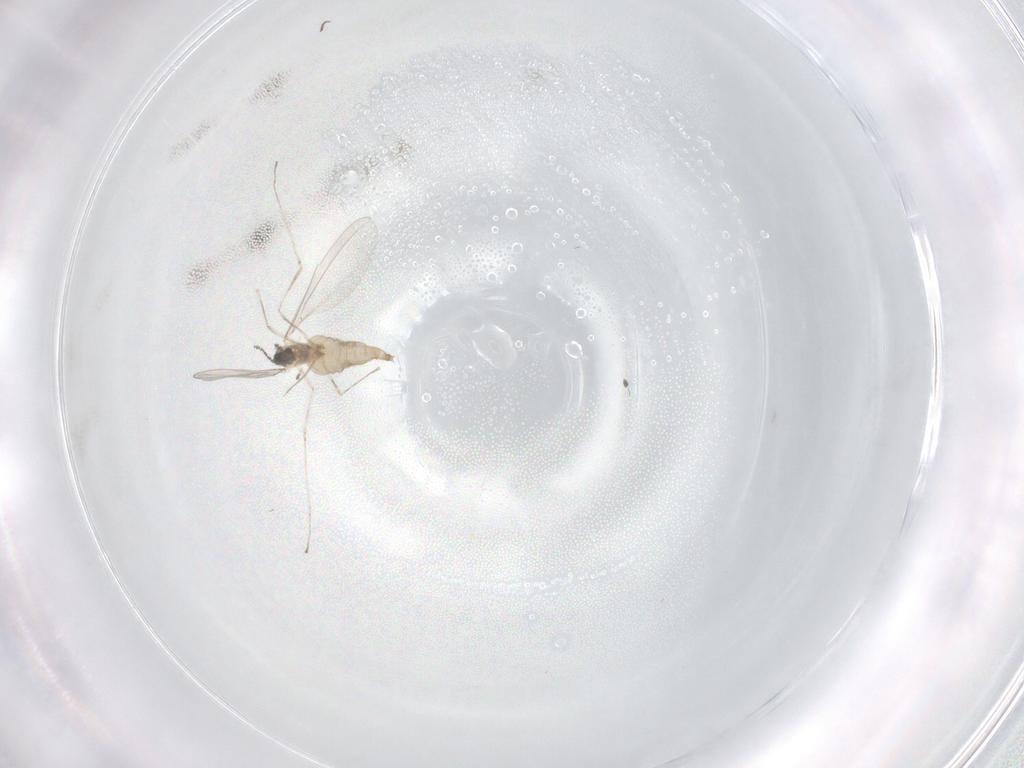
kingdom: Animalia
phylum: Arthropoda
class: Insecta
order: Diptera
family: Cecidomyiidae
